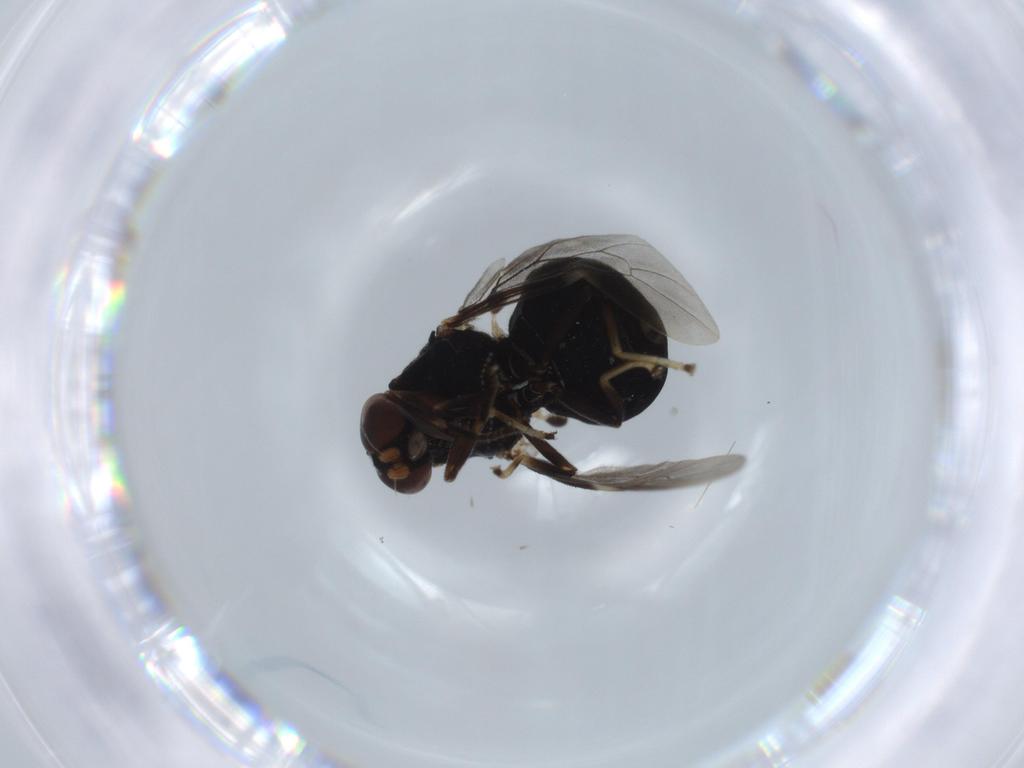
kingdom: Animalia
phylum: Arthropoda
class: Insecta
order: Diptera
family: Stratiomyidae
